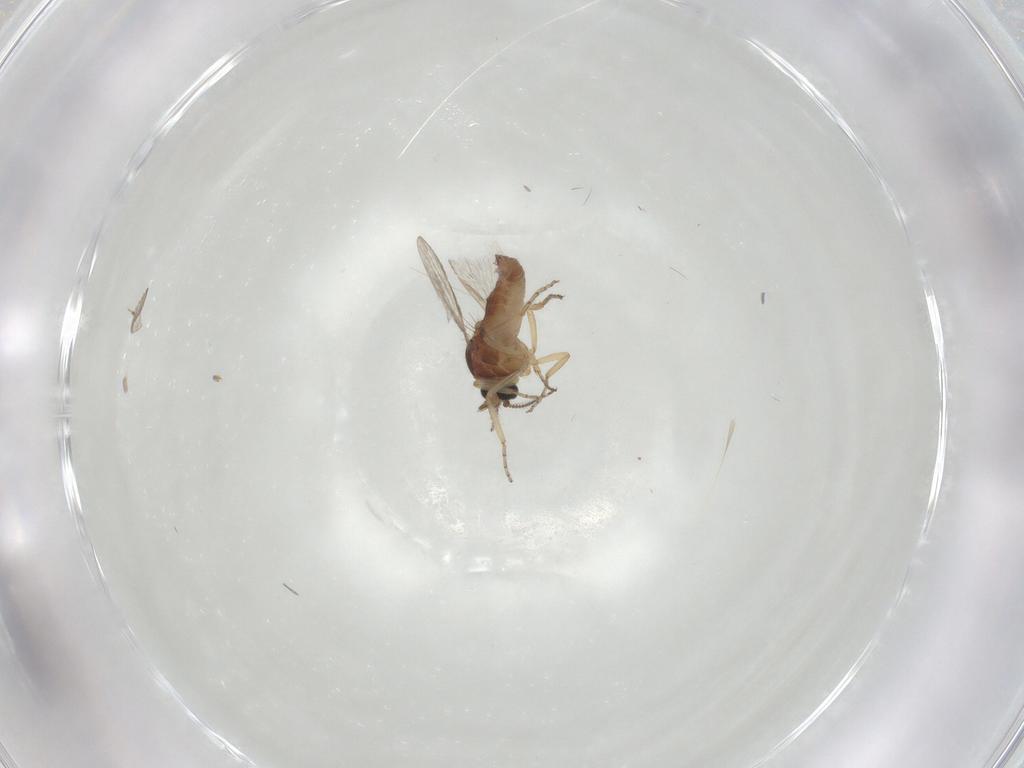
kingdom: Animalia
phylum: Arthropoda
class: Insecta
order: Diptera
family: Ceratopogonidae
